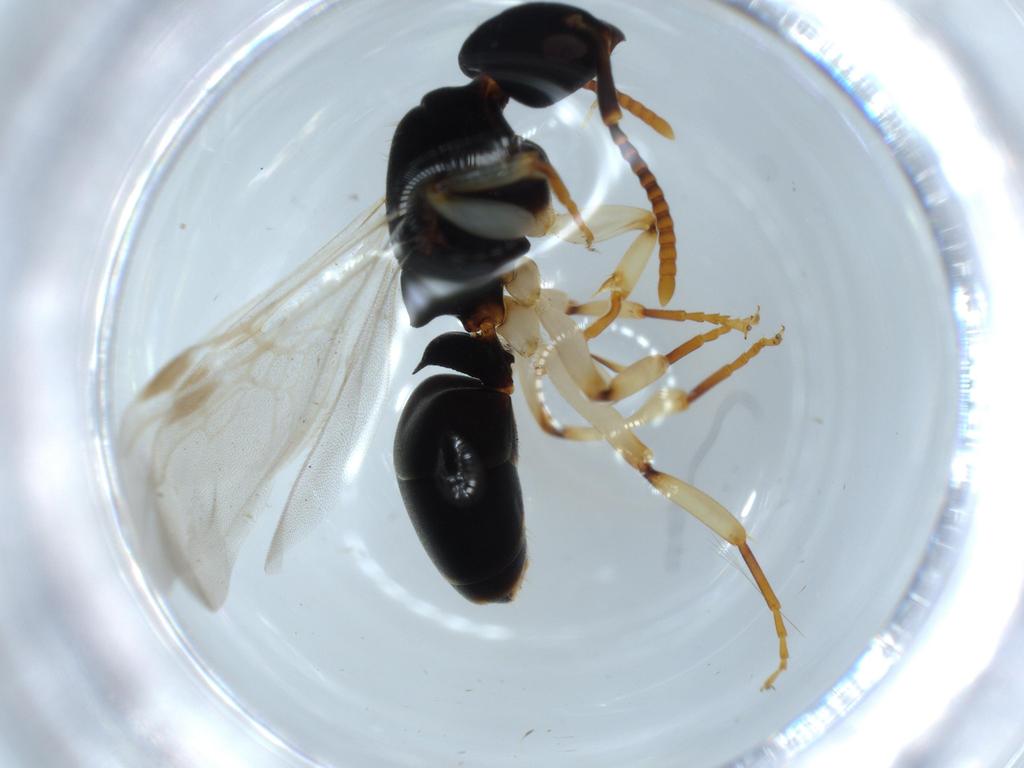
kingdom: Animalia
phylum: Arthropoda
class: Insecta
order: Hymenoptera
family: Formicidae
